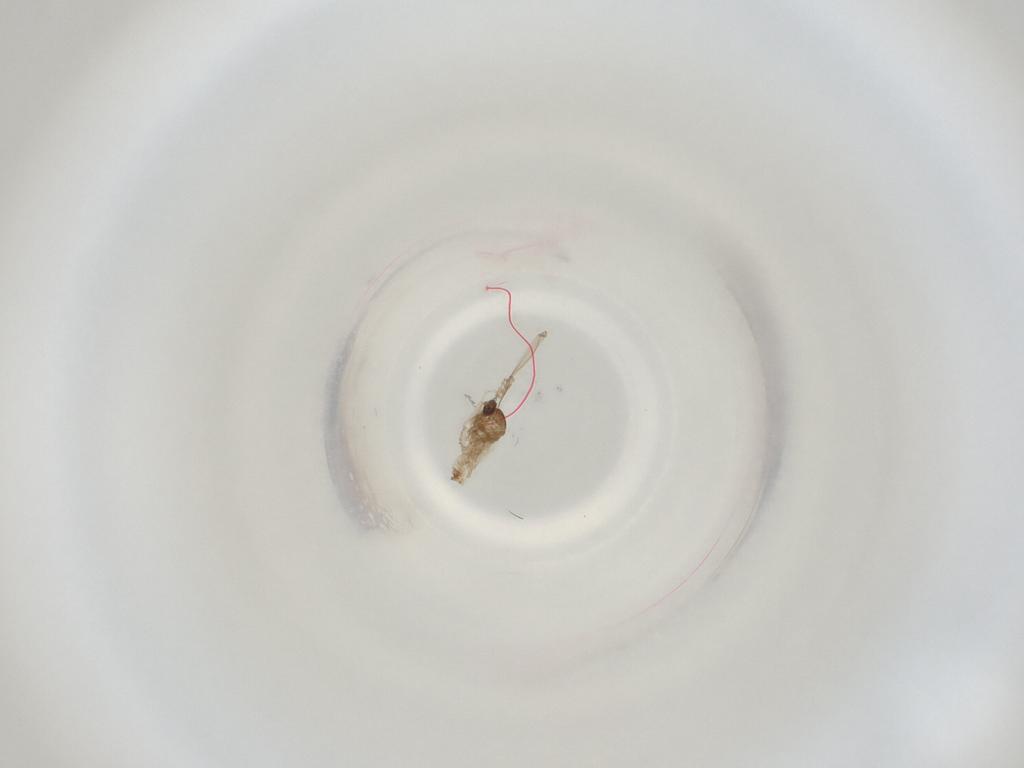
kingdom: Animalia
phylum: Arthropoda
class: Insecta
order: Diptera
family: Cecidomyiidae
